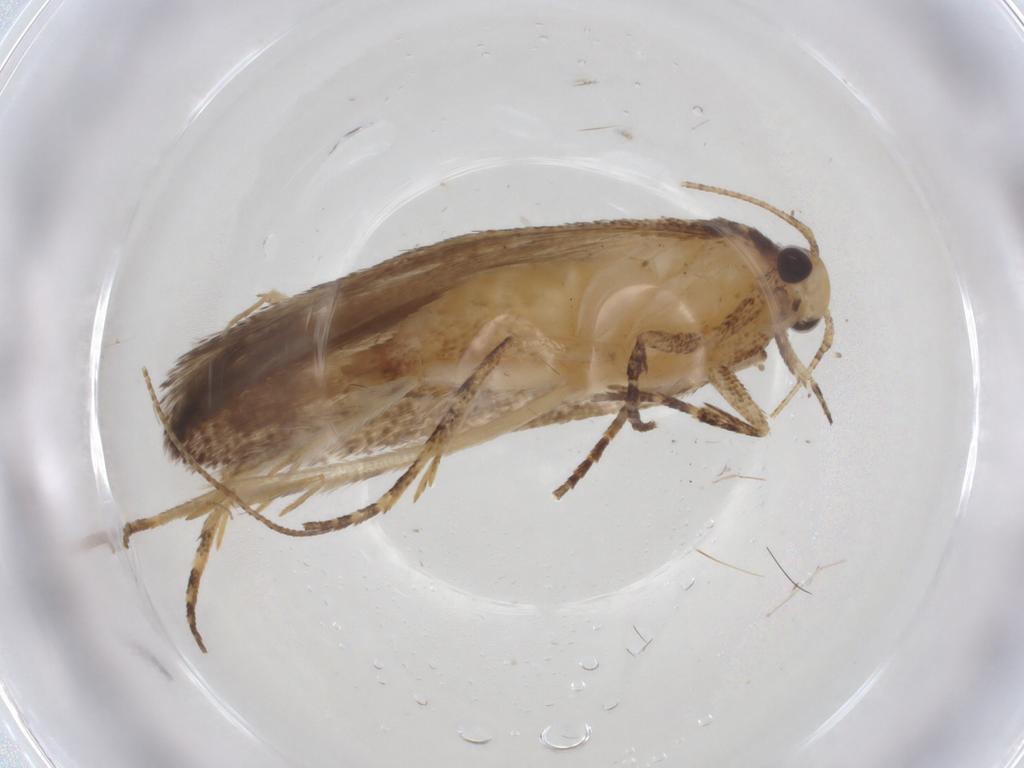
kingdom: Animalia
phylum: Arthropoda
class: Insecta
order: Lepidoptera
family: Gelechiidae
